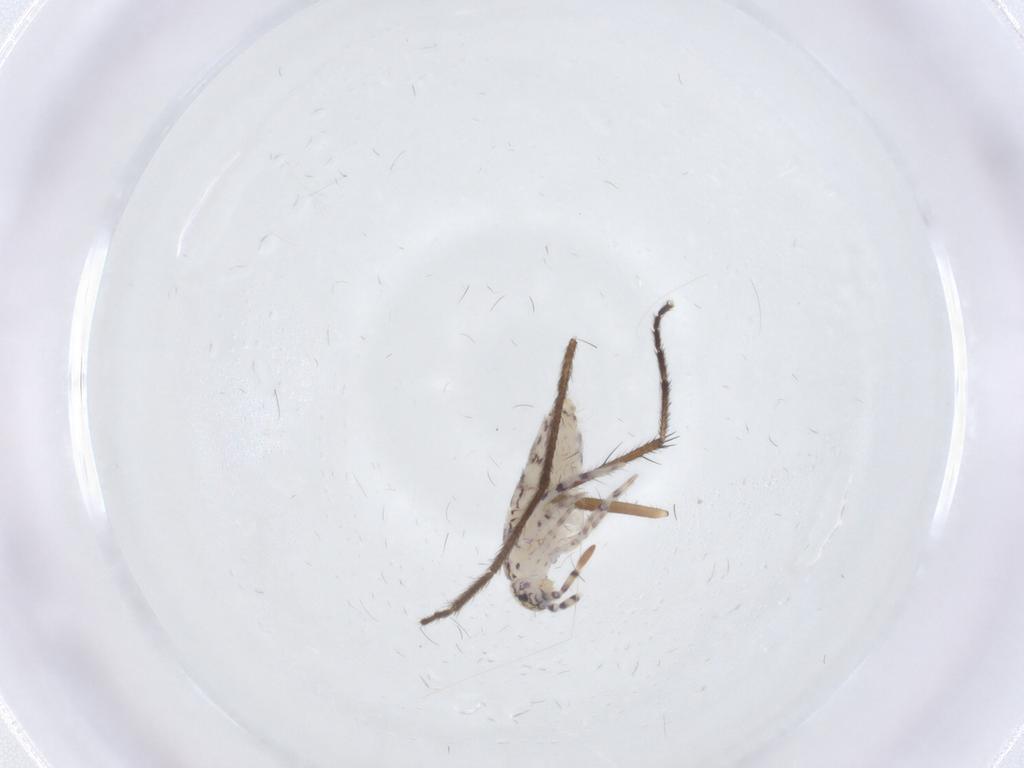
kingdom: Animalia
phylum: Arthropoda
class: Collembola
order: Entomobryomorpha
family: Entomobryidae
